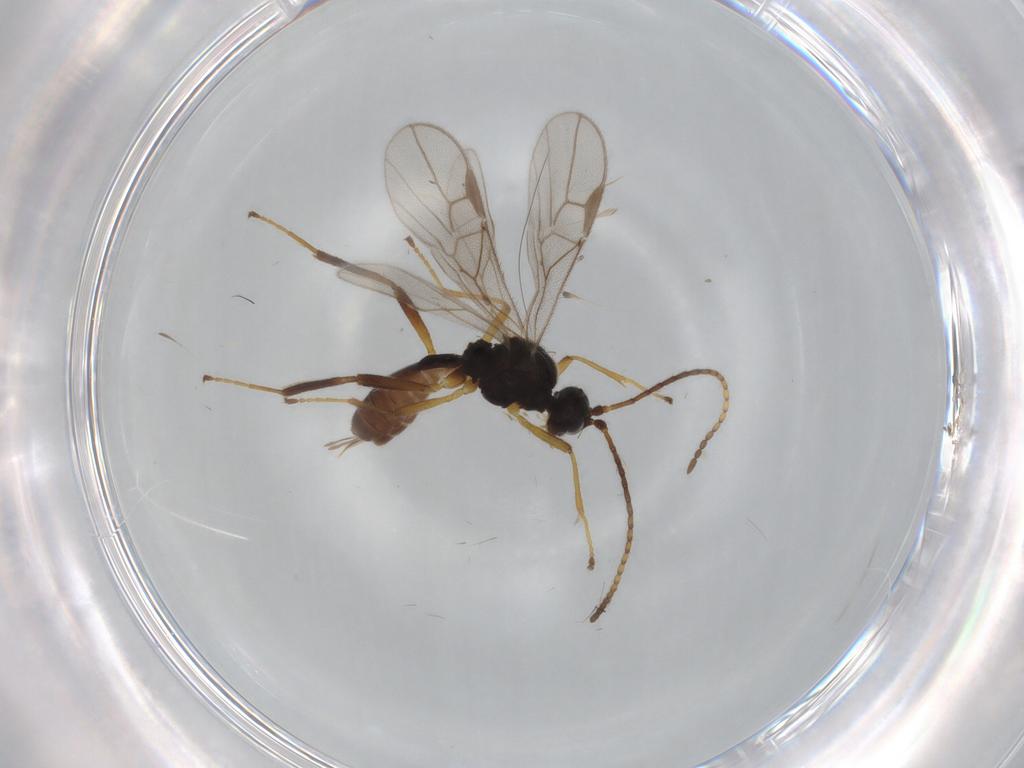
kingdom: Animalia
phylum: Arthropoda
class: Insecta
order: Hymenoptera
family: Braconidae
